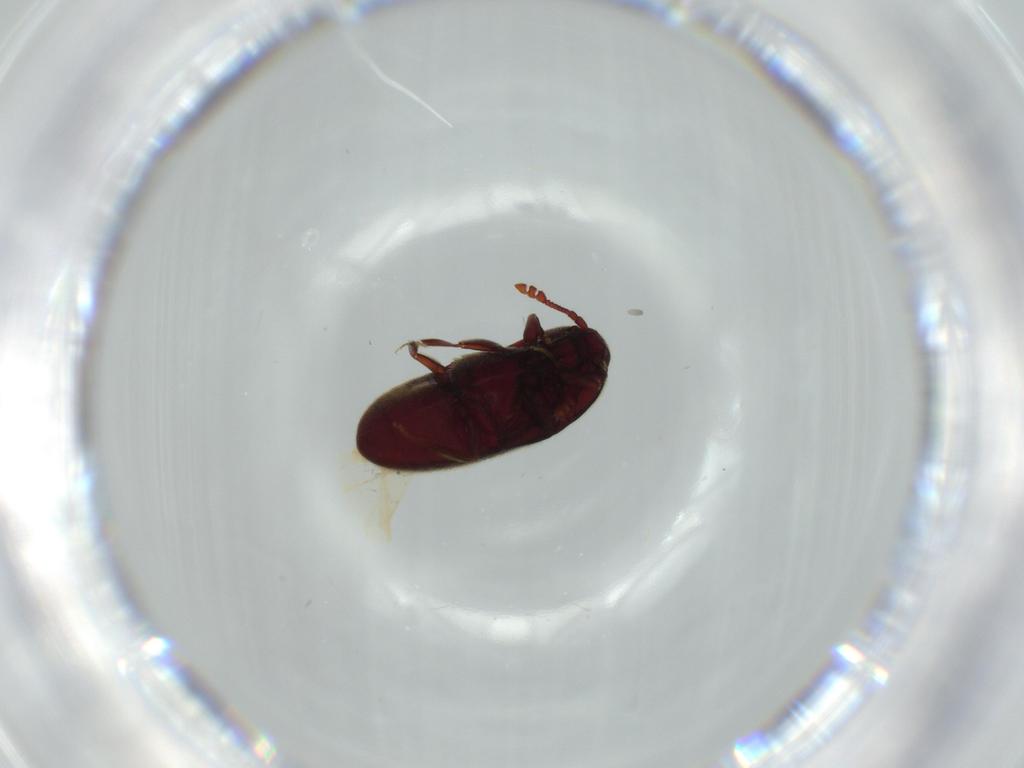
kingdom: Animalia
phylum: Arthropoda
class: Insecta
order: Coleoptera
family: Throscidae
